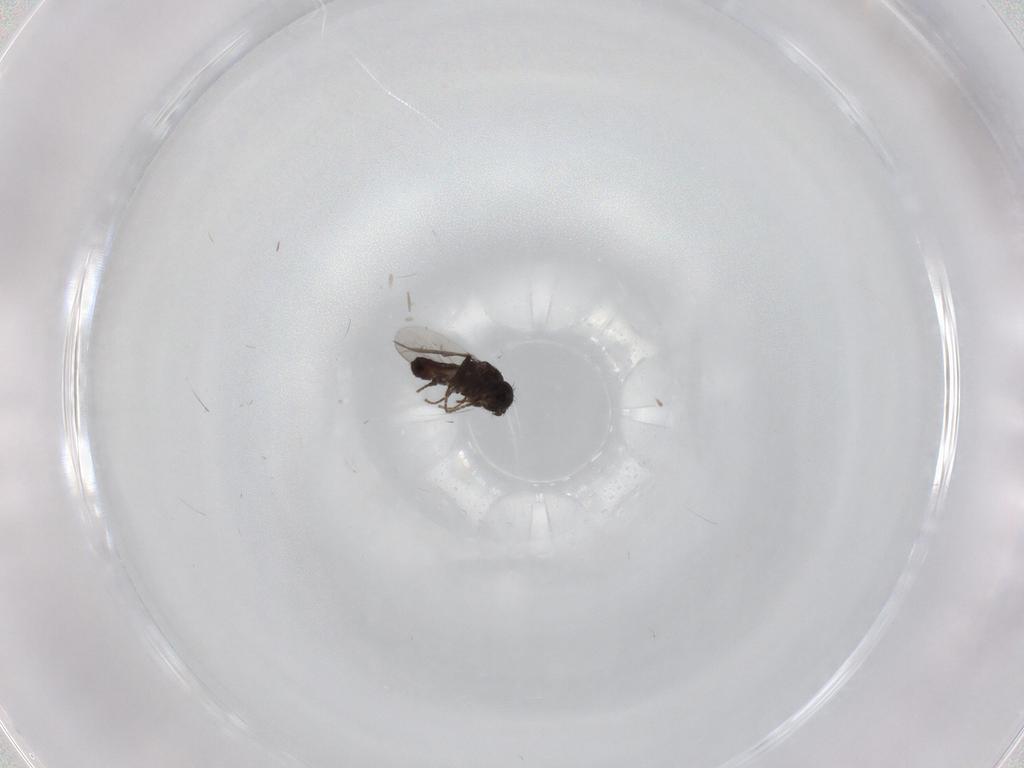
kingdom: Animalia
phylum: Arthropoda
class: Insecta
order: Diptera
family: Sphaeroceridae
